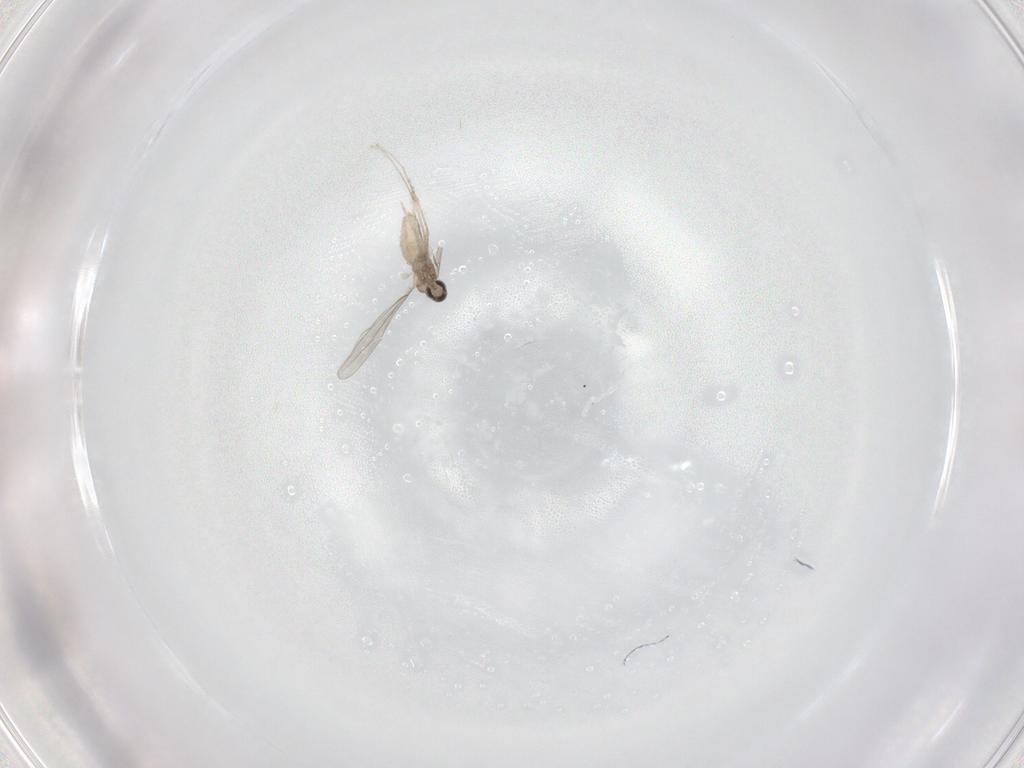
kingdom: Animalia
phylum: Arthropoda
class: Insecta
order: Diptera
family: Cecidomyiidae
